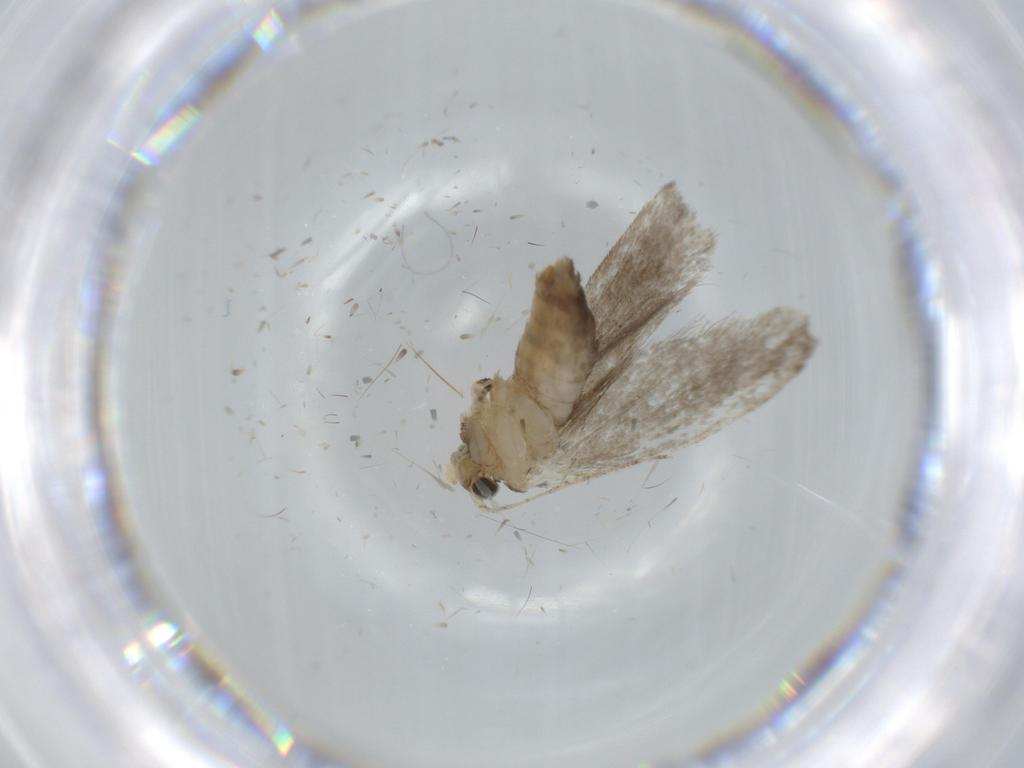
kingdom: Animalia
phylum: Arthropoda
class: Insecta
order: Lepidoptera
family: Tineidae
